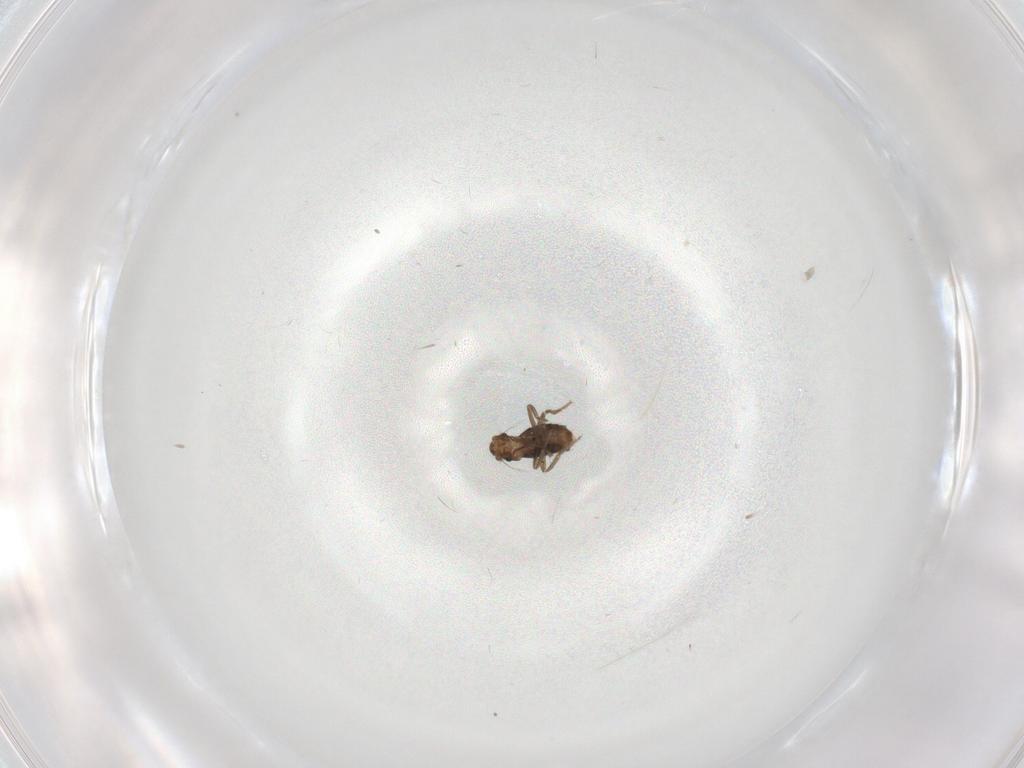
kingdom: Animalia
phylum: Arthropoda
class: Insecta
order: Diptera
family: Phoridae
